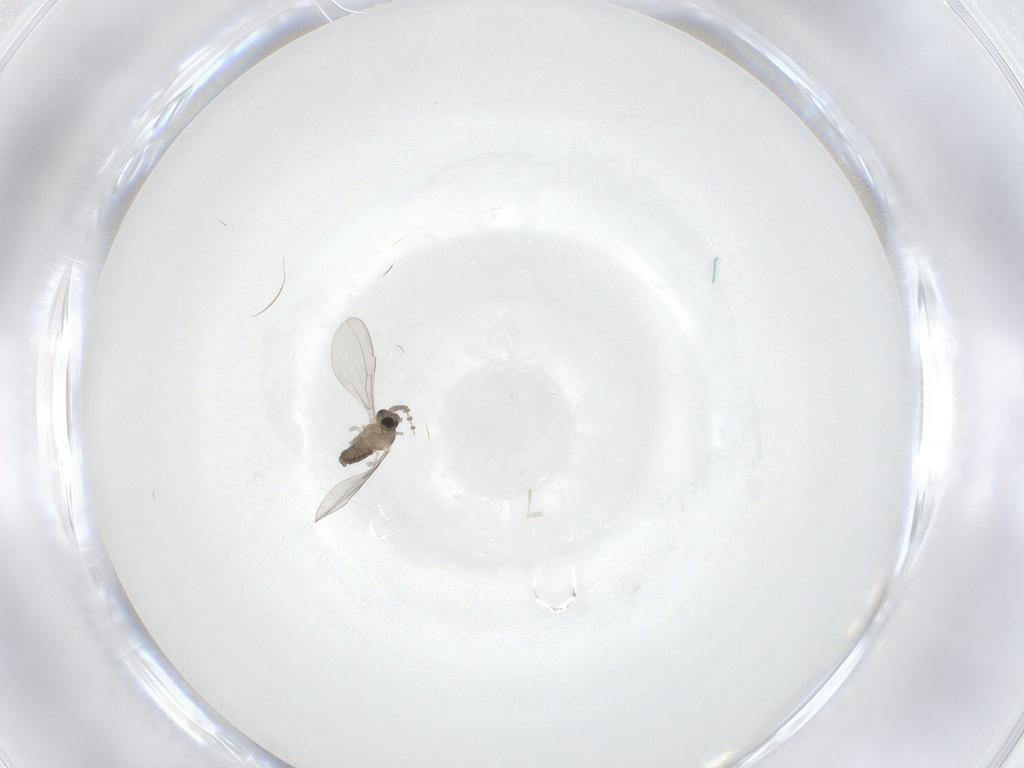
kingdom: Animalia
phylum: Arthropoda
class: Insecta
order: Diptera
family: Cecidomyiidae
